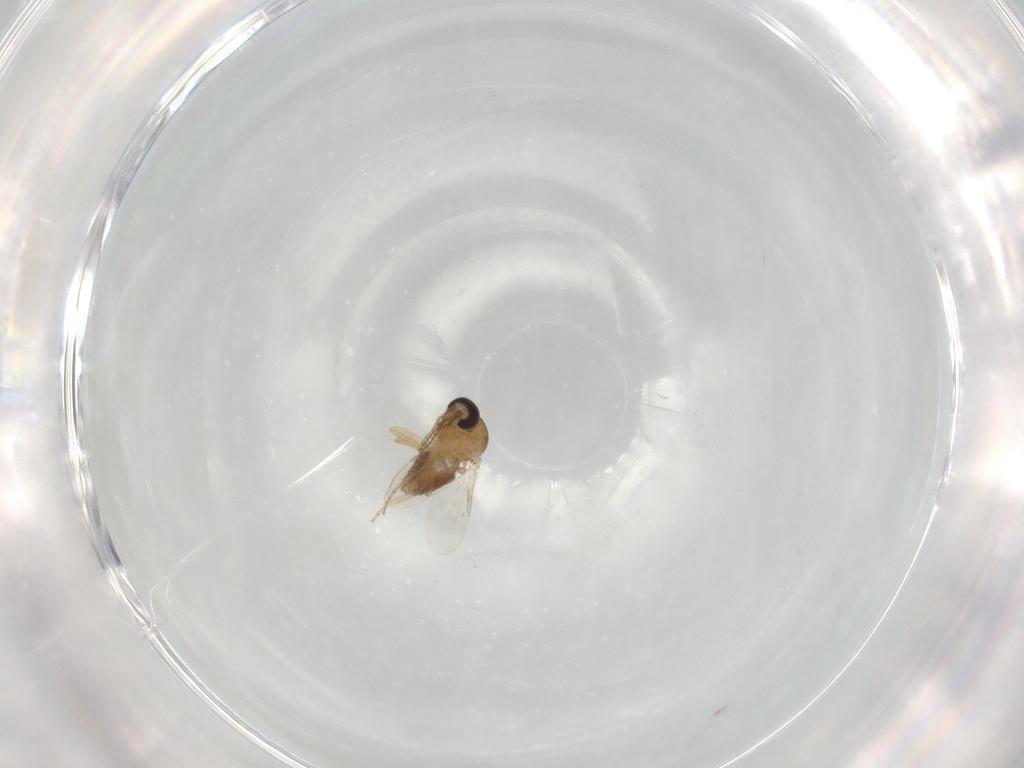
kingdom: Animalia
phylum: Arthropoda
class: Insecta
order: Diptera
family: Ceratopogonidae
